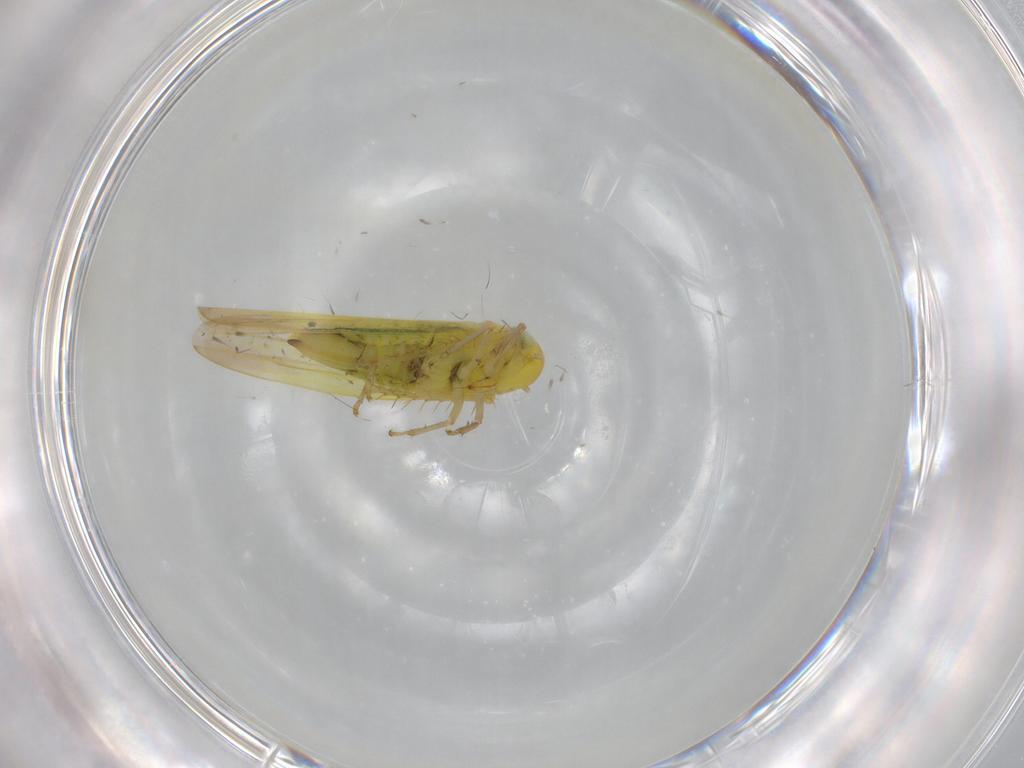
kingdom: Animalia
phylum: Arthropoda
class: Insecta
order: Hemiptera
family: Cicadellidae
